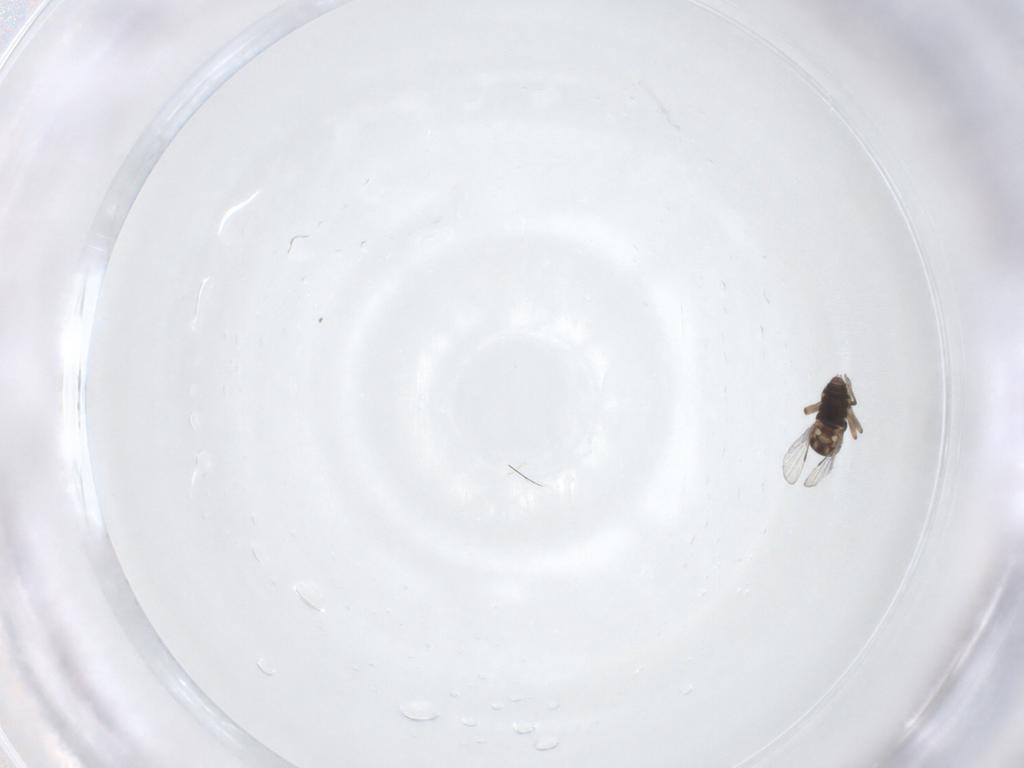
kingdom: Animalia
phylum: Arthropoda
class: Insecta
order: Diptera
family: Ceratopogonidae
